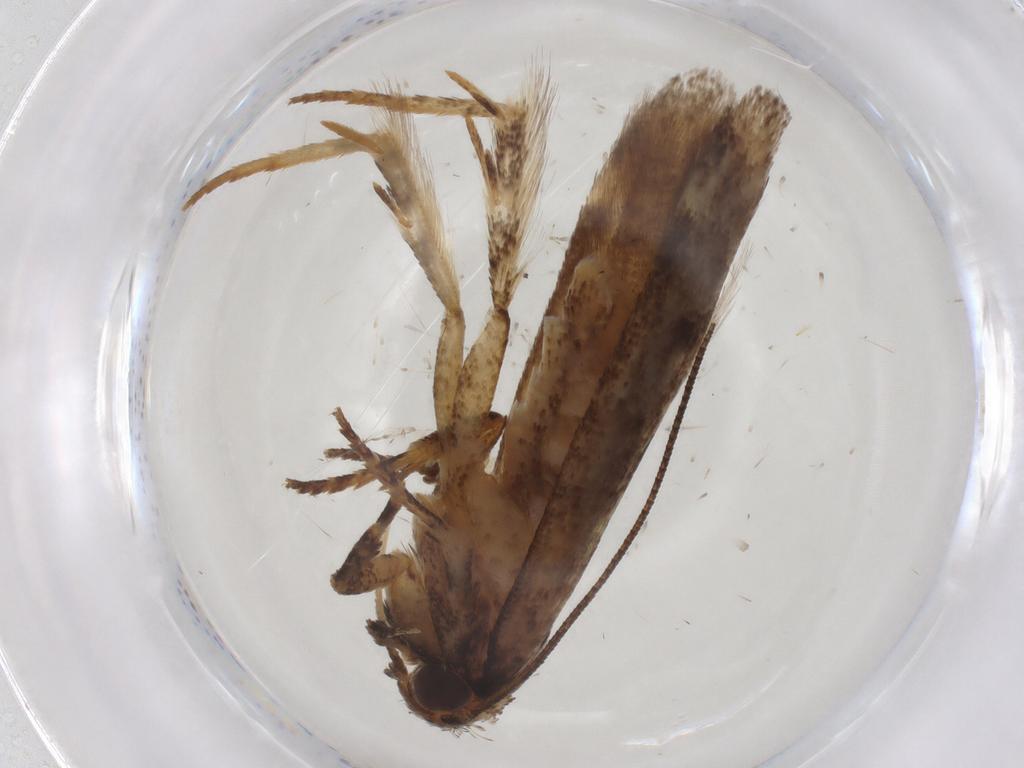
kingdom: Animalia
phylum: Arthropoda
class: Insecta
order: Lepidoptera
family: Gelechiidae
